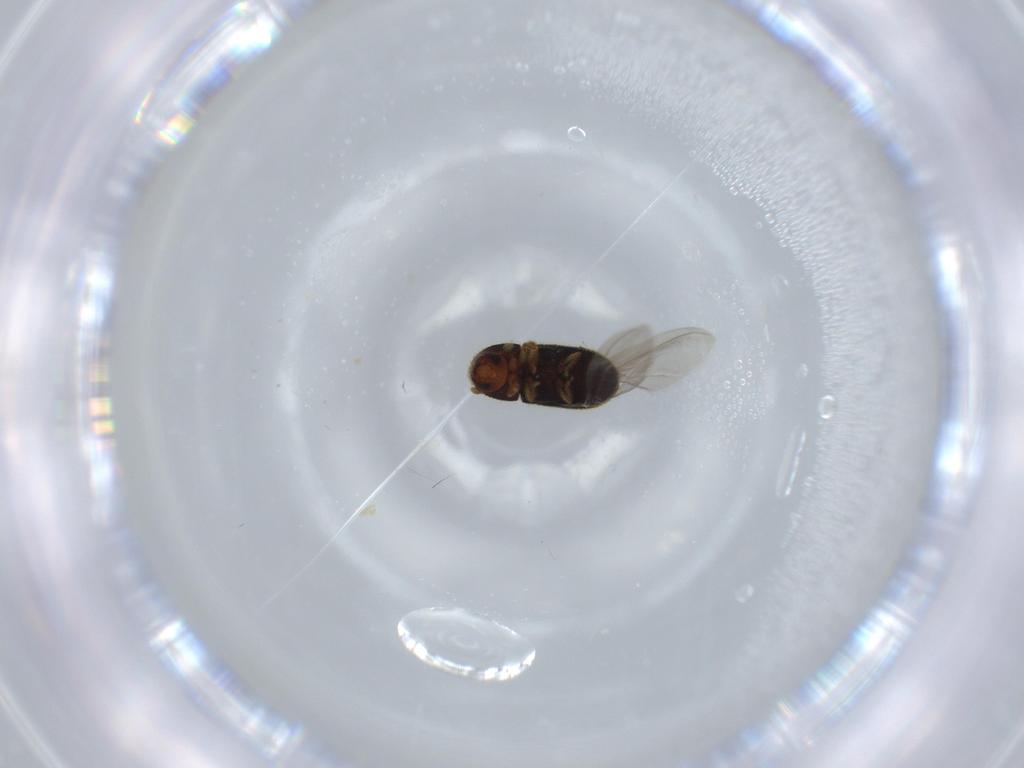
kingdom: Animalia
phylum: Arthropoda
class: Insecta
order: Coleoptera
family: Curculionidae
